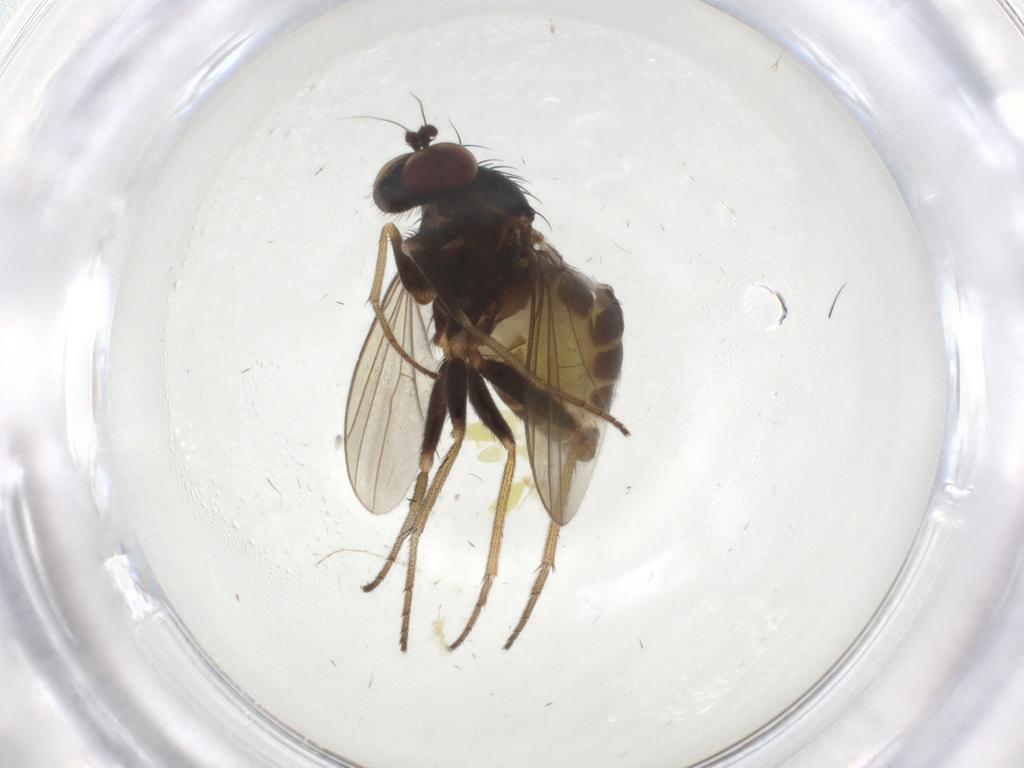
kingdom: Animalia
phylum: Arthropoda
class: Insecta
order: Diptera
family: Dolichopodidae
